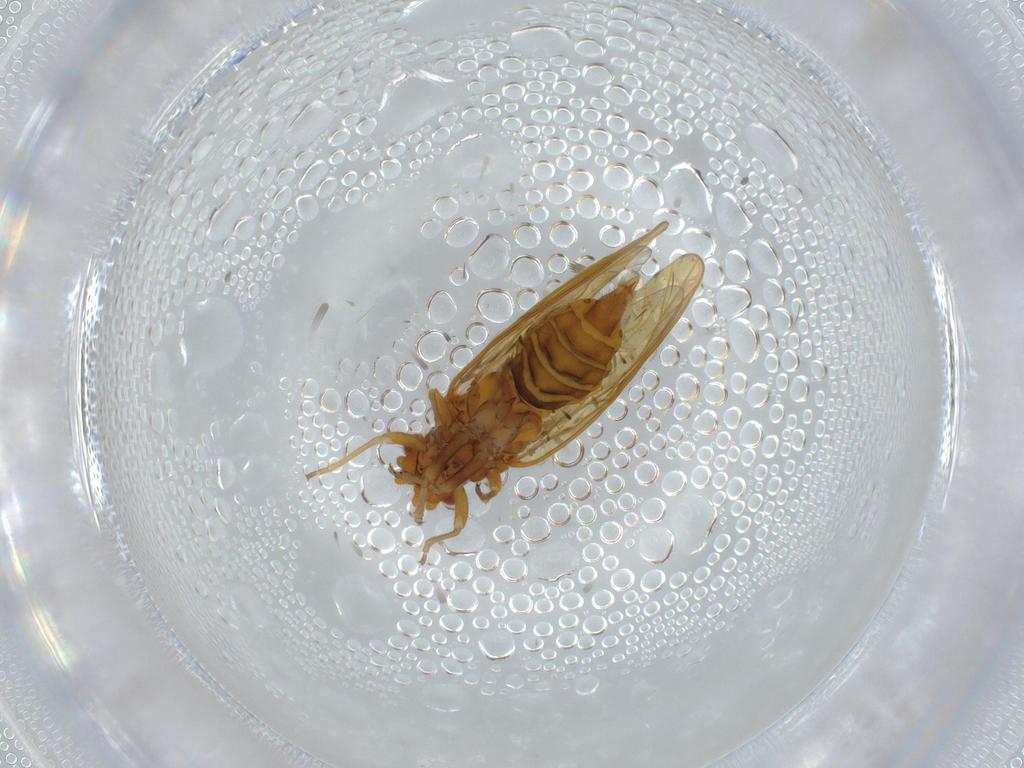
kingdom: Animalia
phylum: Arthropoda
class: Insecta
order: Hemiptera
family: Psylloidea_incertae_sedis
